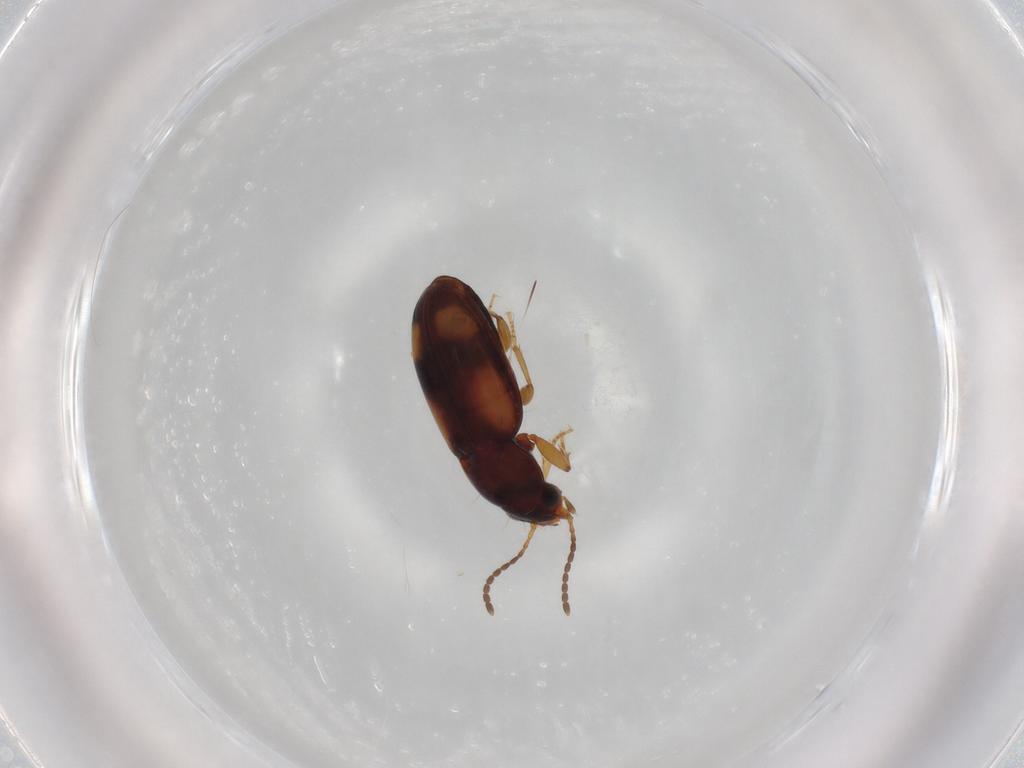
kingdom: Animalia
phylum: Arthropoda
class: Insecta
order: Coleoptera
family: Carabidae
